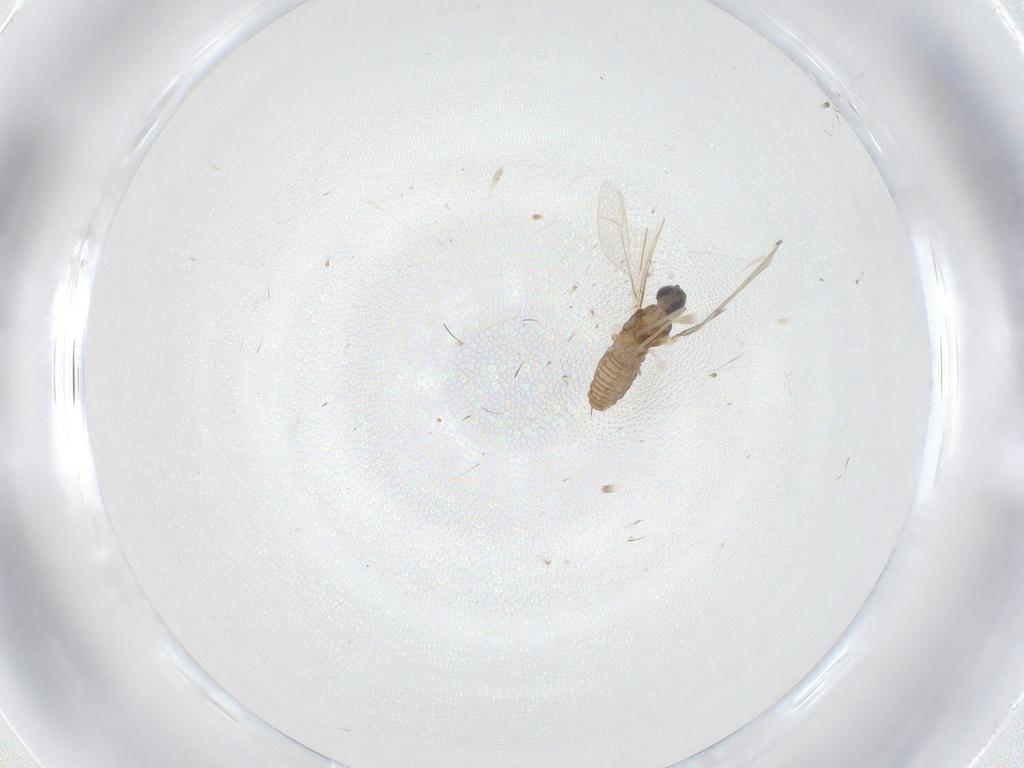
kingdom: Animalia
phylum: Arthropoda
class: Insecta
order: Diptera
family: Cecidomyiidae
